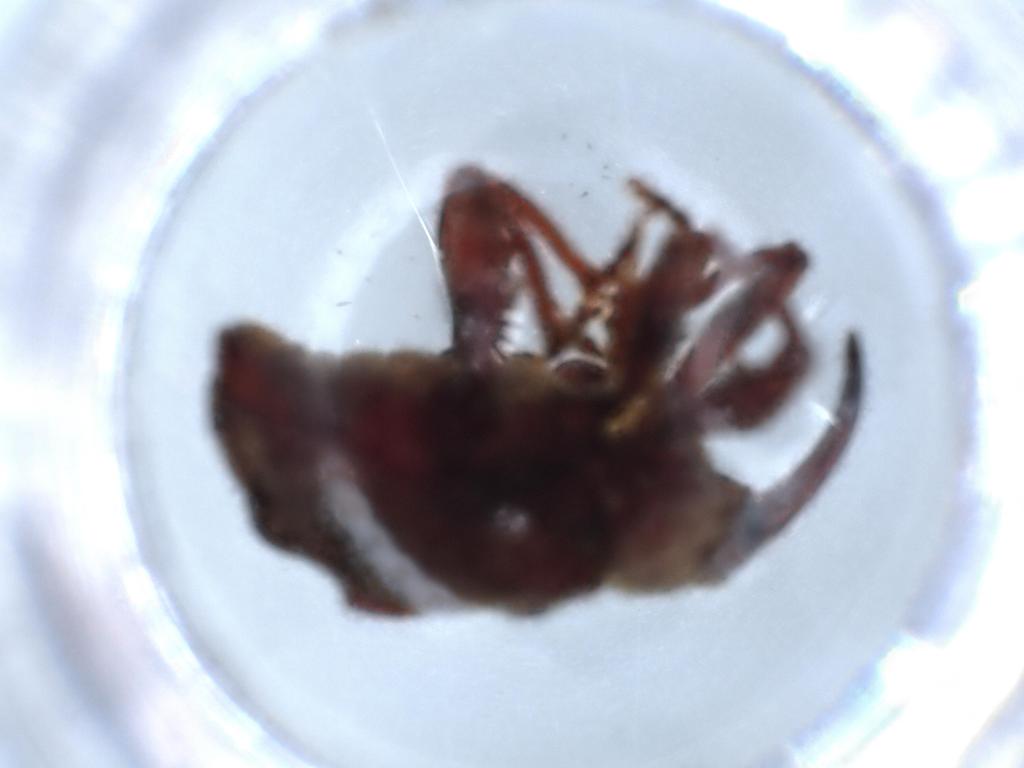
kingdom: Animalia
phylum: Arthropoda
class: Insecta
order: Coleoptera
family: Curculionidae
